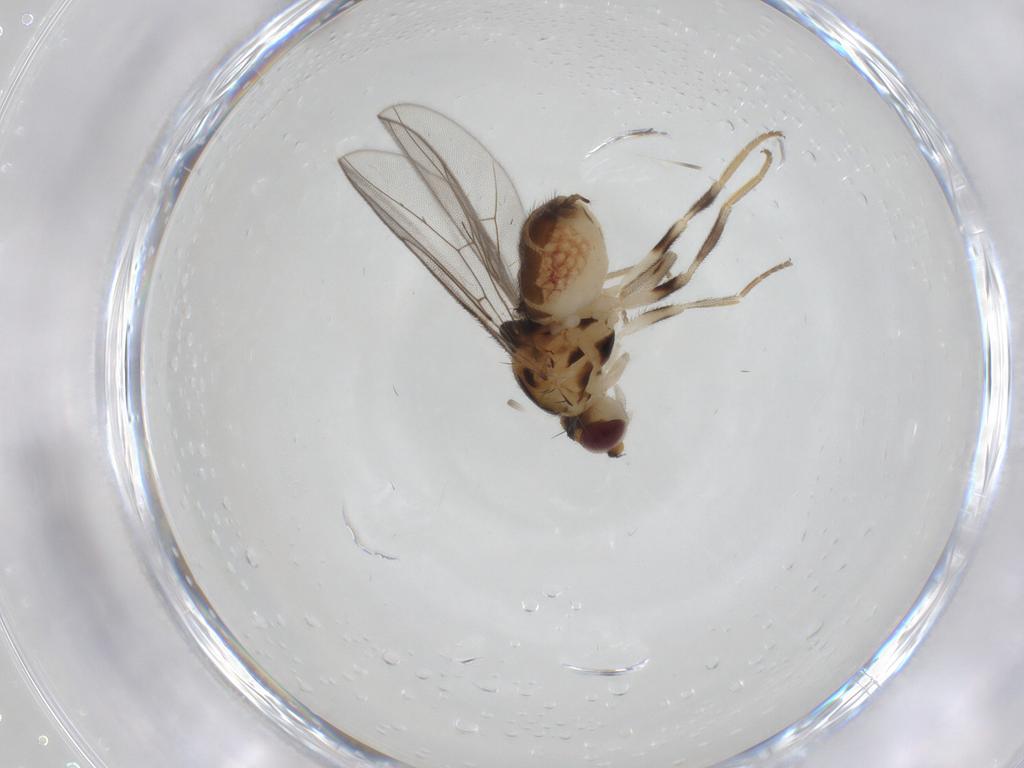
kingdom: Animalia
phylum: Arthropoda
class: Insecta
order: Diptera
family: Chloropidae
